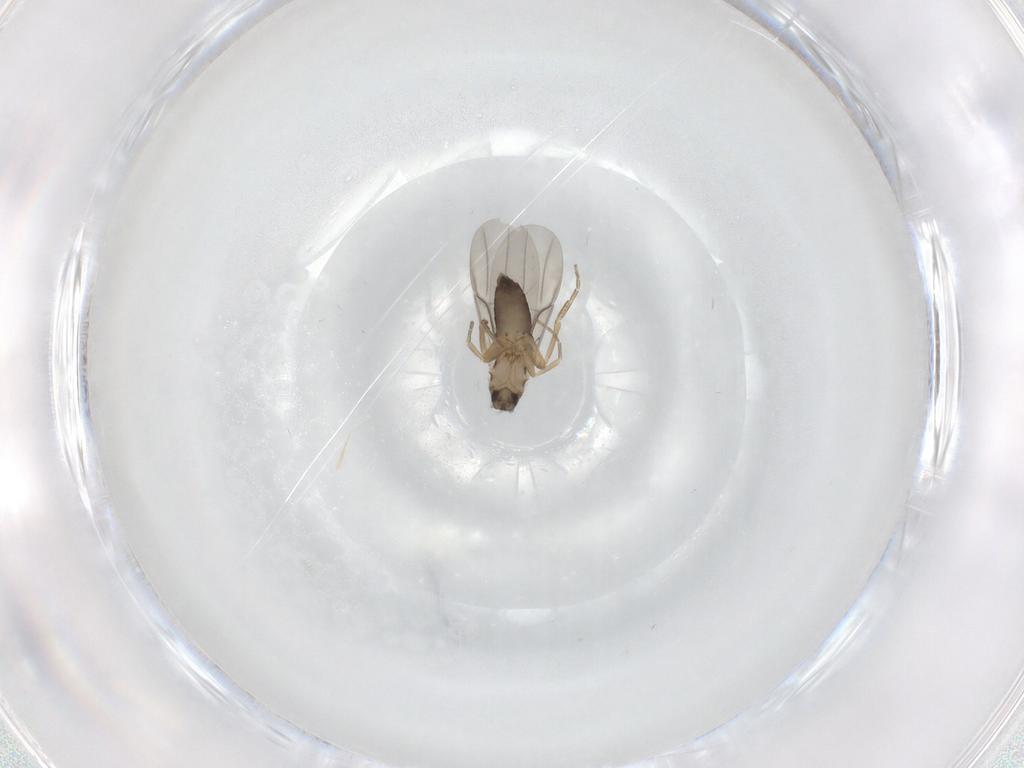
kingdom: Animalia
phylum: Arthropoda
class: Insecta
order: Diptera
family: Phoridae
